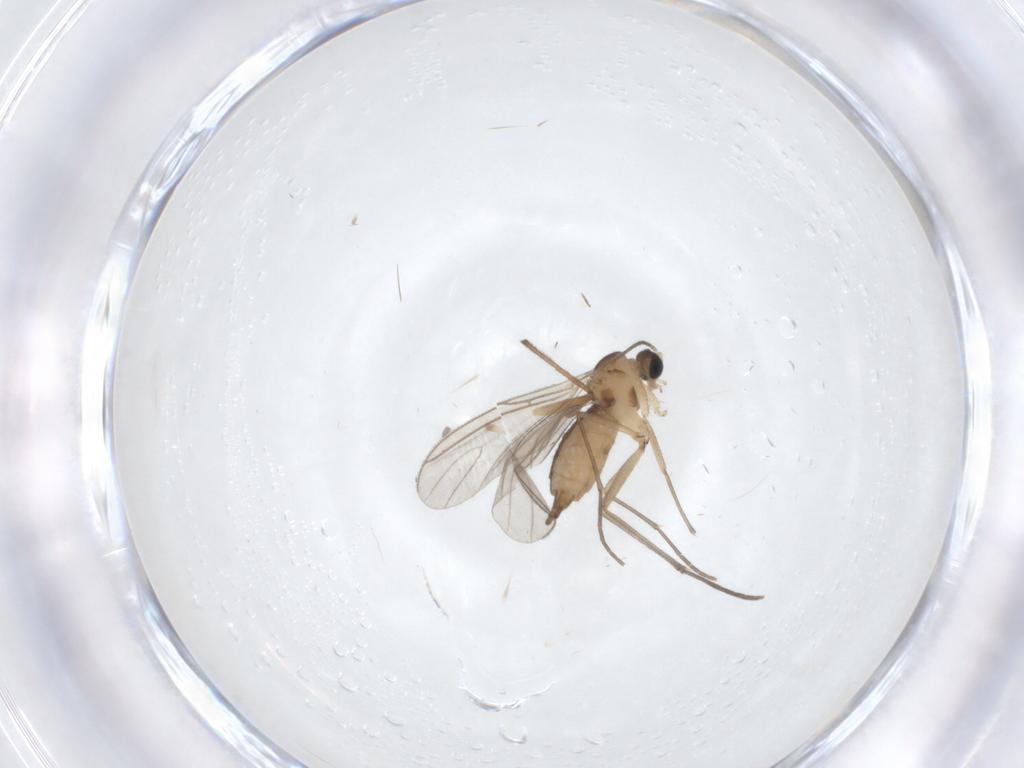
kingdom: Animalia
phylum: Arthropoda
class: Insecta
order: Diptera
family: Sciaridae
